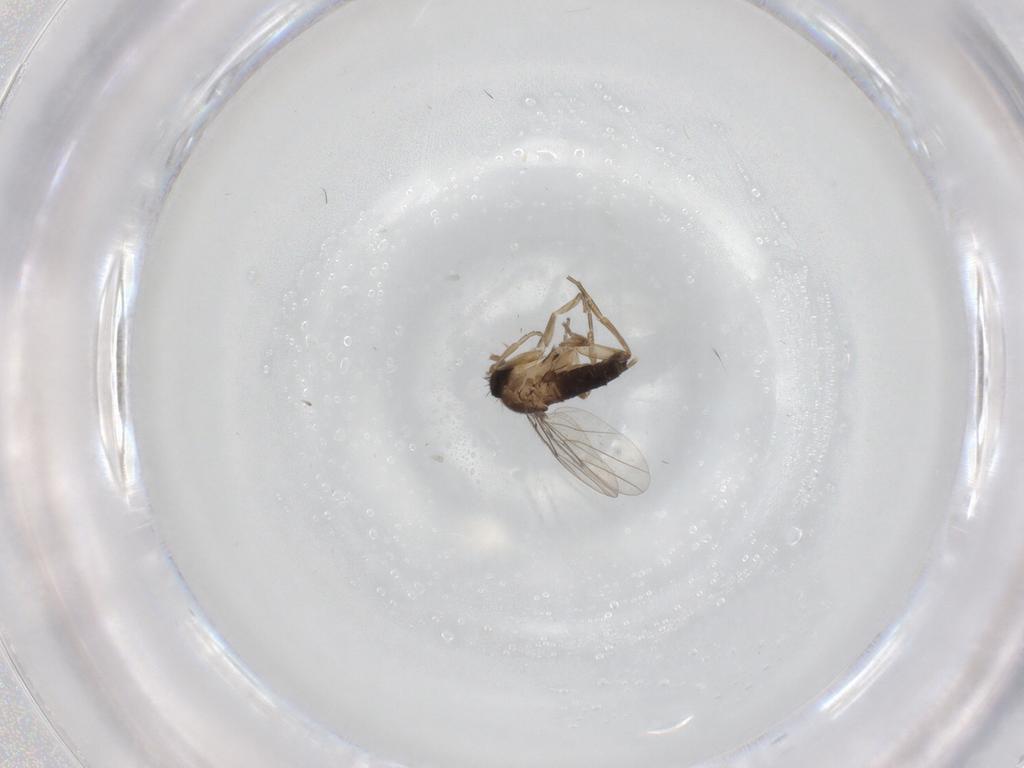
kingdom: Animalia
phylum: Arthropoda
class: Insecta
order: Diptera
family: Phoridae
